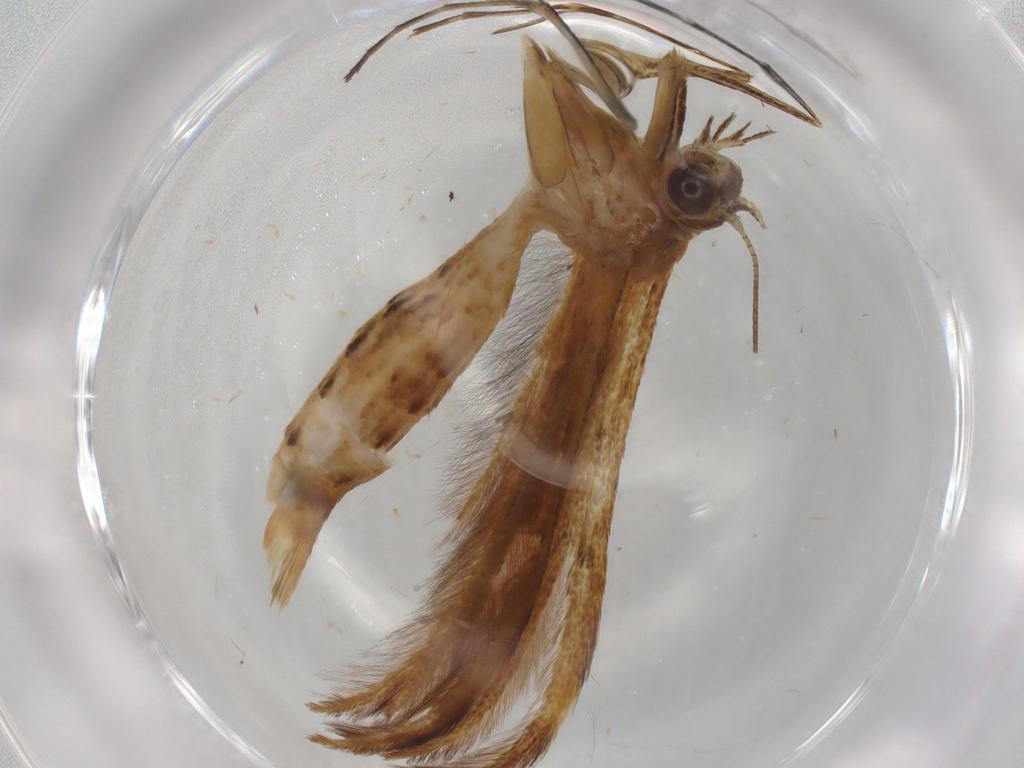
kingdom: Animalia
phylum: Arthropoda
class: Insecta
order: Lepidoptera
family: Pterophoridae
